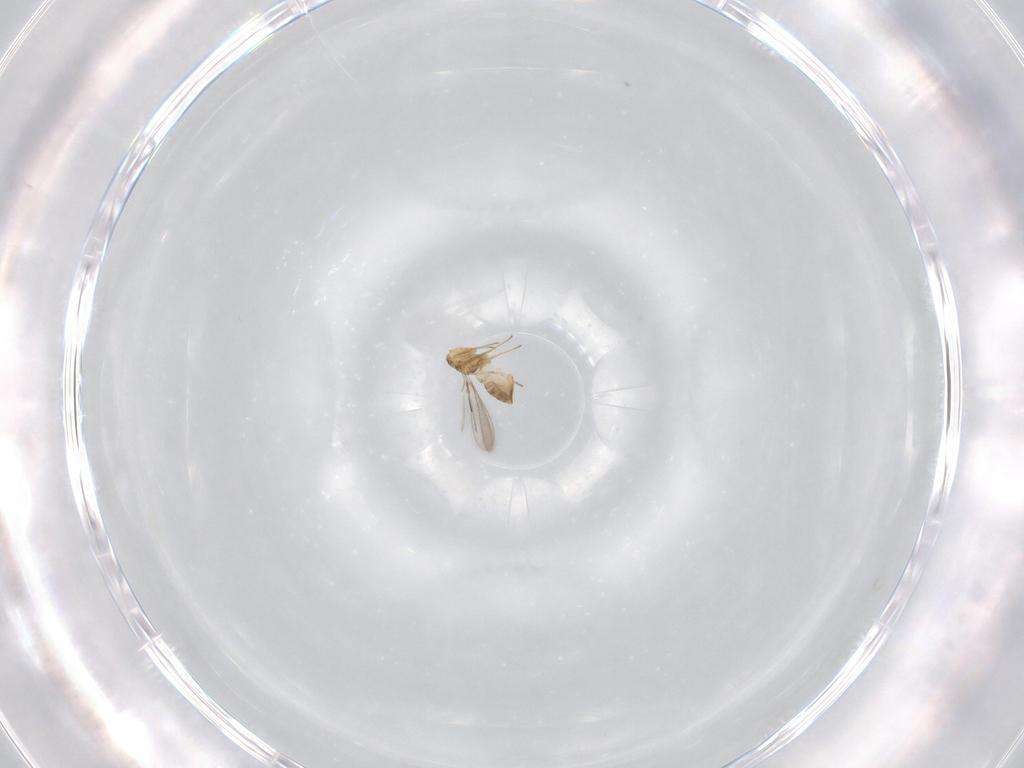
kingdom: Animalia
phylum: Arthropoda
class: Insecta
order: Hymenoptera
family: Mymaridae
